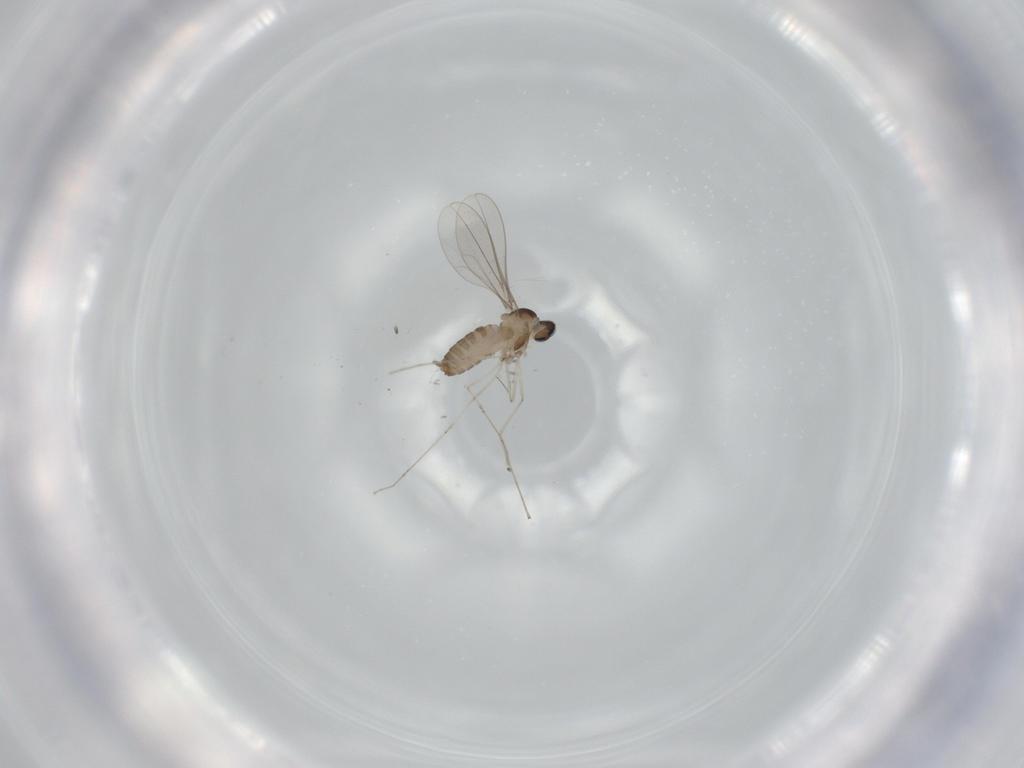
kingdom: Animalia
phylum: Arthropoda
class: Insecta
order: Diptera
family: Cecidomyiidae
